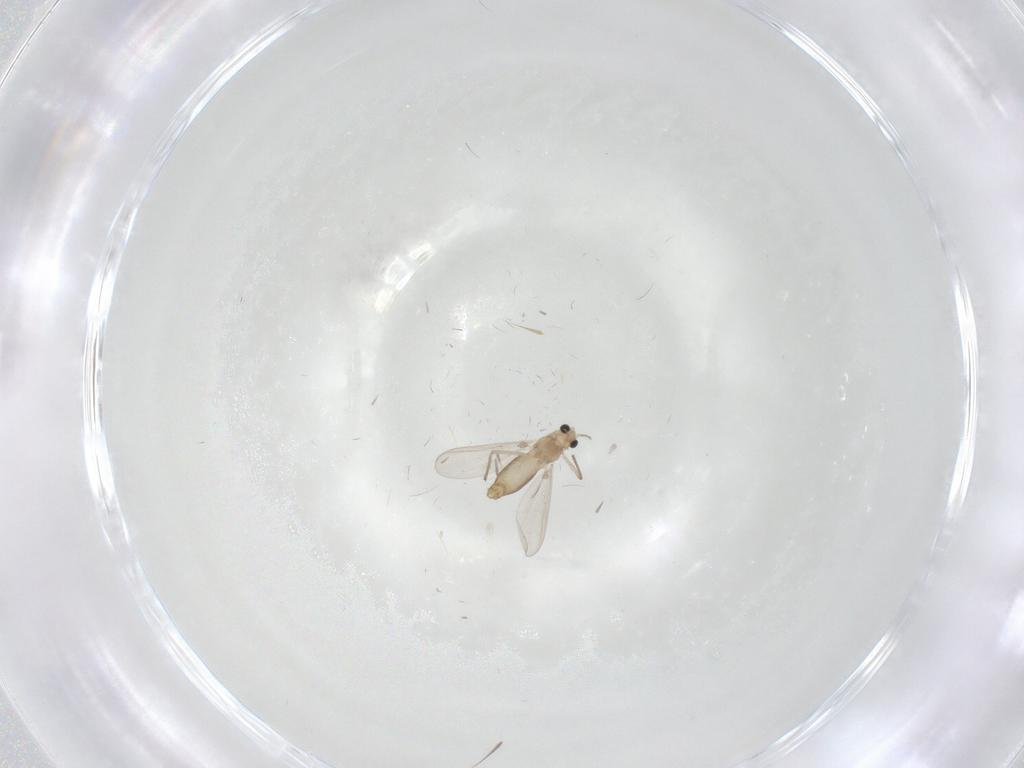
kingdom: Animalia
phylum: Arthropoda
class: Insecta
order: Diptera
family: Chironomidae
